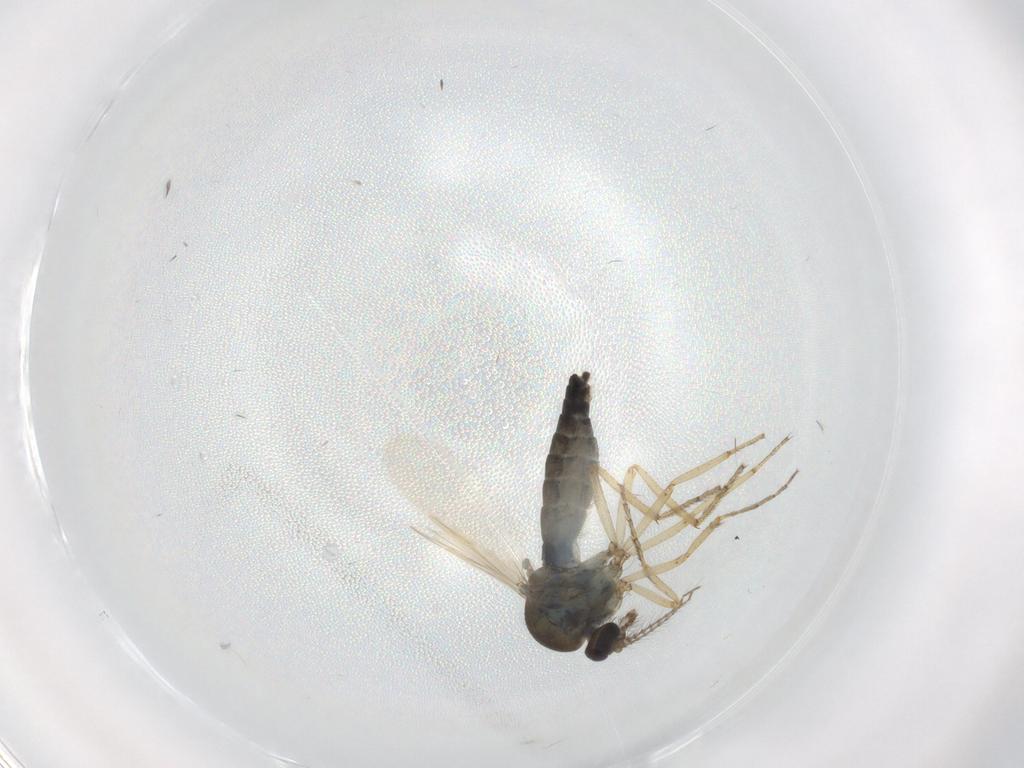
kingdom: Animalia
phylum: Arthropoda
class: Insecta
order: Diptera
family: Ceratopogonidae
